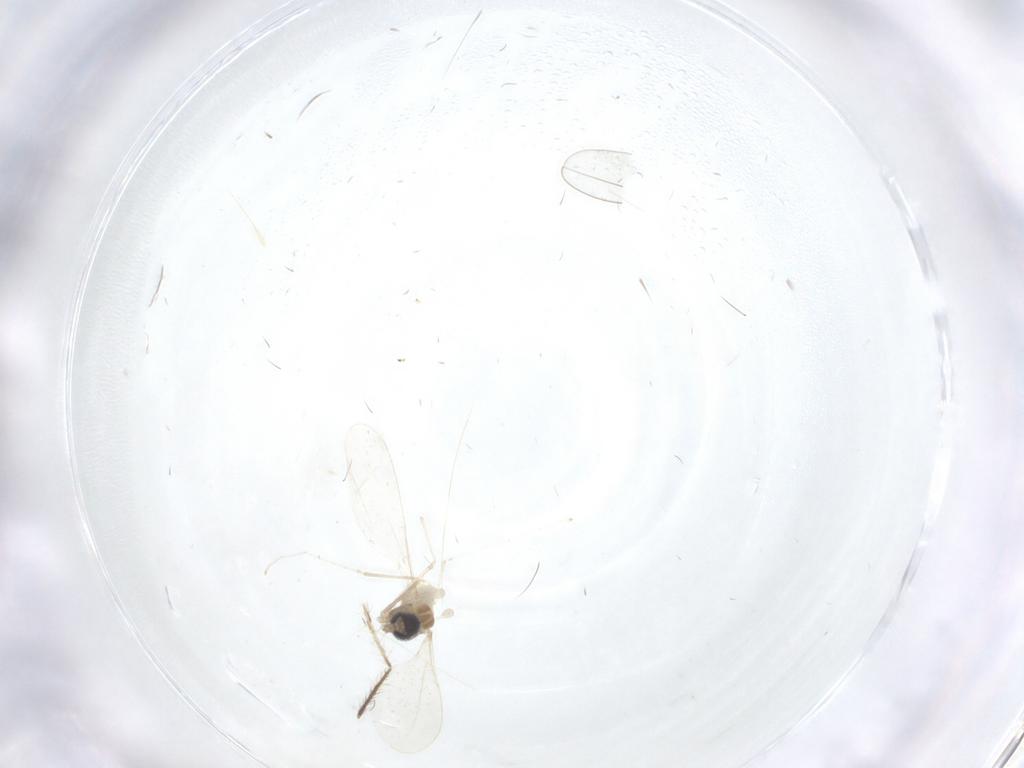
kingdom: Animalia
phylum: Arthropoda
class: Insecta
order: Diptera
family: Cecidomyiidae
